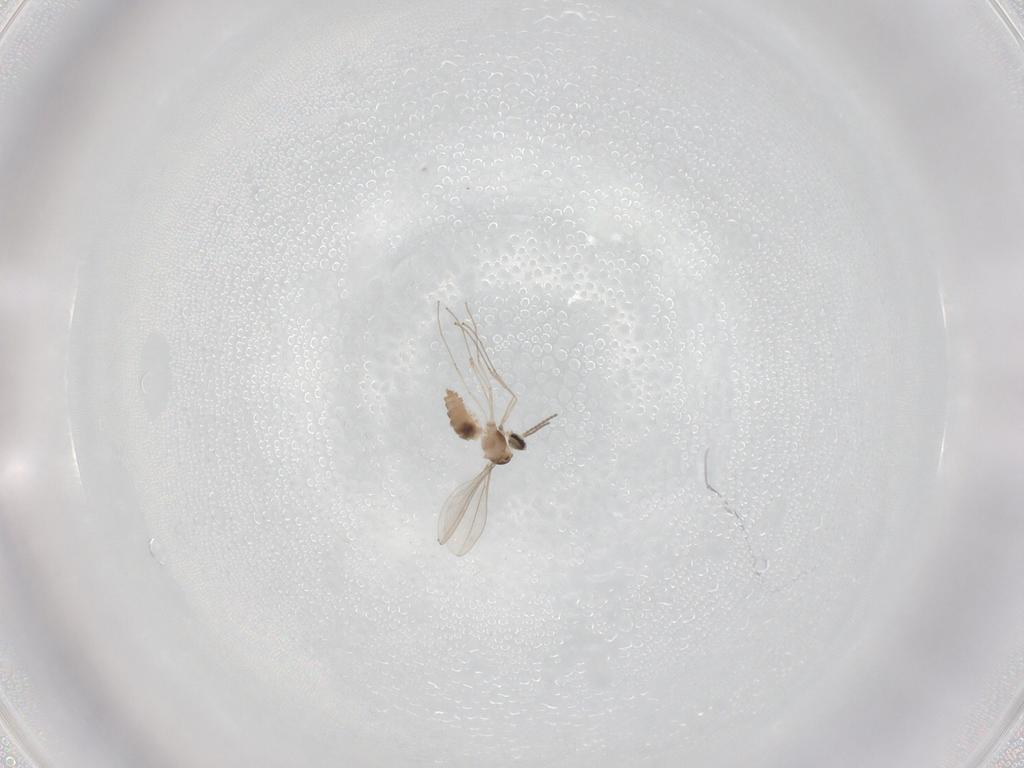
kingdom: Animalia
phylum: Arthropoda
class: Insecta
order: Diptera
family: Cecidomyiidae
